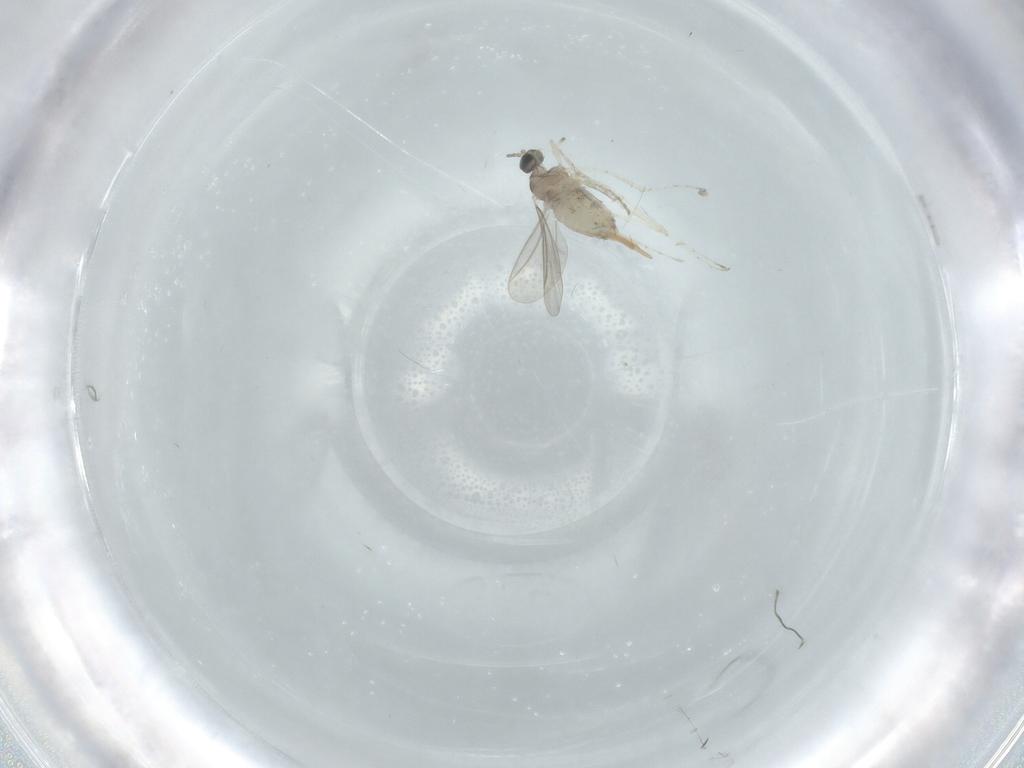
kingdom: Animalia
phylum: Arthropoda
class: Insecta
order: Diptera
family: Cecidomyiidae
